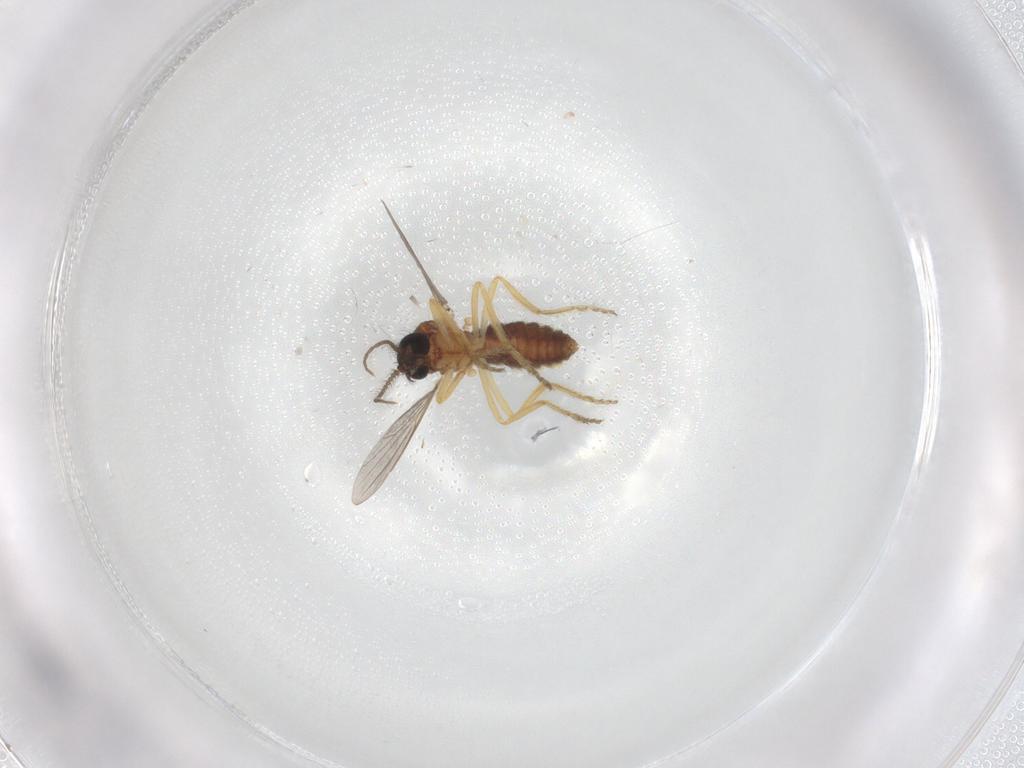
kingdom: Animalia
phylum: Arthropoda
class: Insecta
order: Diptera
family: Ceratopogonidae
